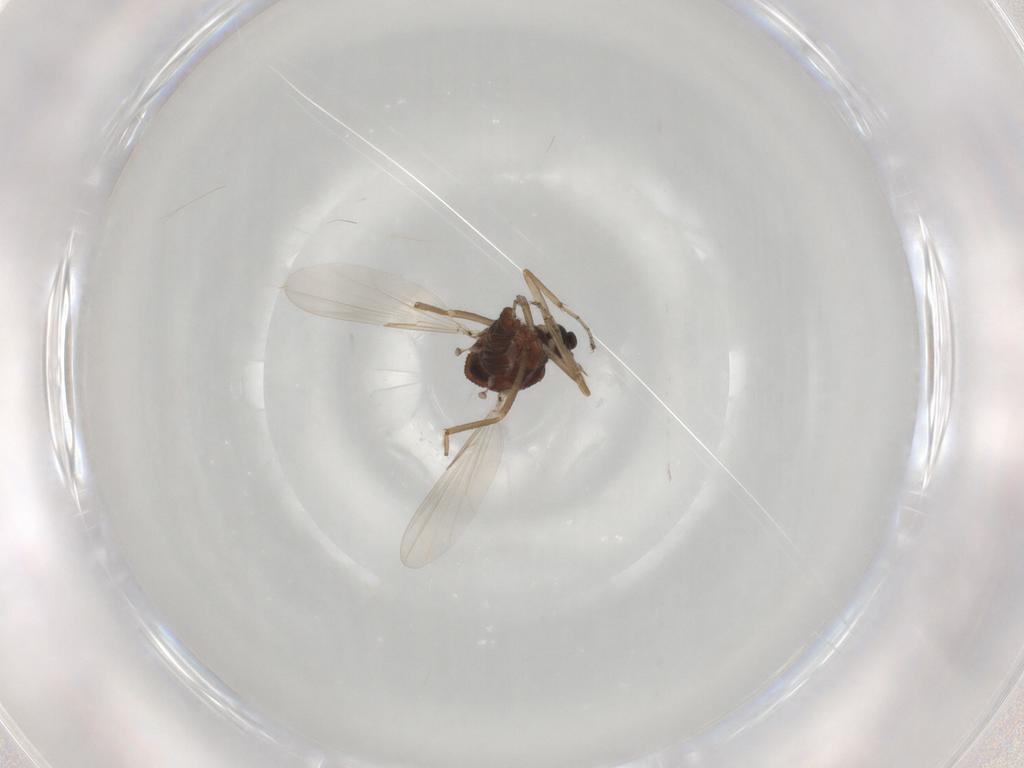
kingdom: Animalia
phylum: Arthropoda
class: Insecta
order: Diptera
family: Ceratopogonidae
